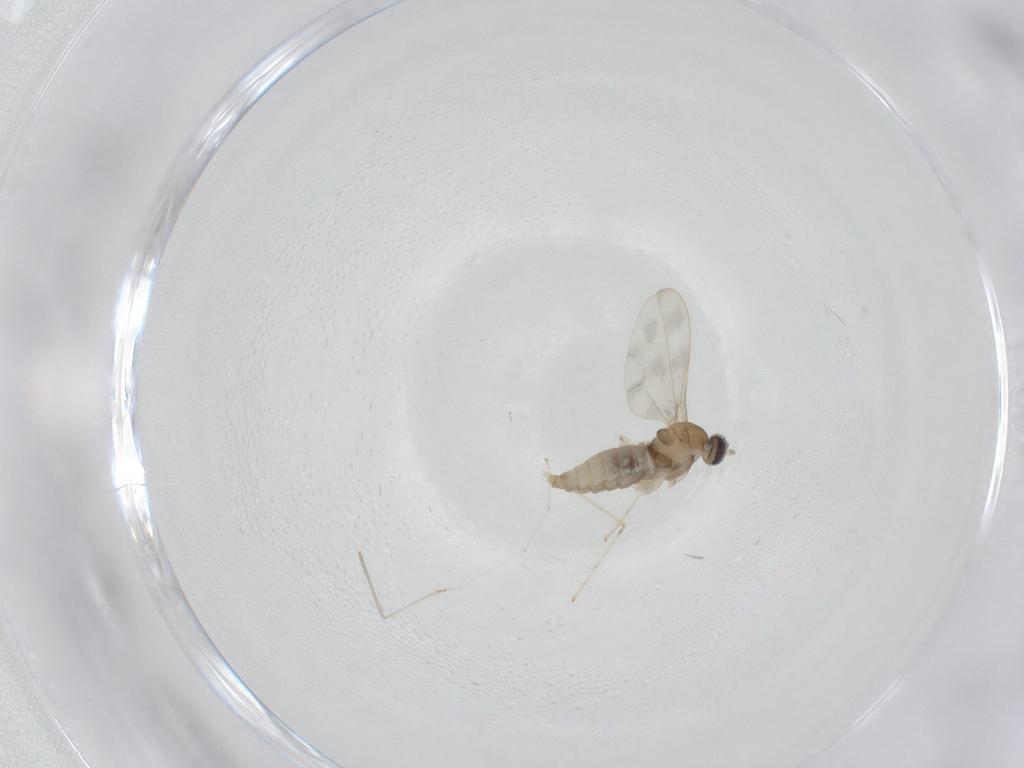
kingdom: Animalia
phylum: Arthropoda
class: Insecta
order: Diptera
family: Cecidomyiidae
